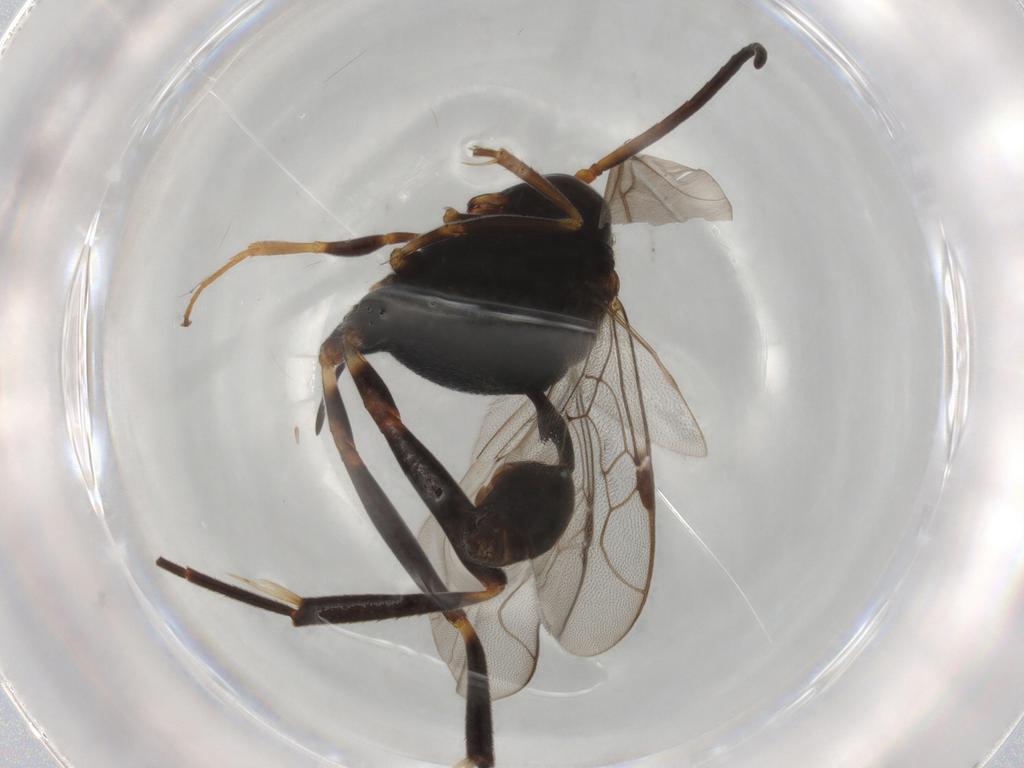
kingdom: Animalia
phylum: Arthropoda
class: Insecta
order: Hymenoptera
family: Evaniidae
